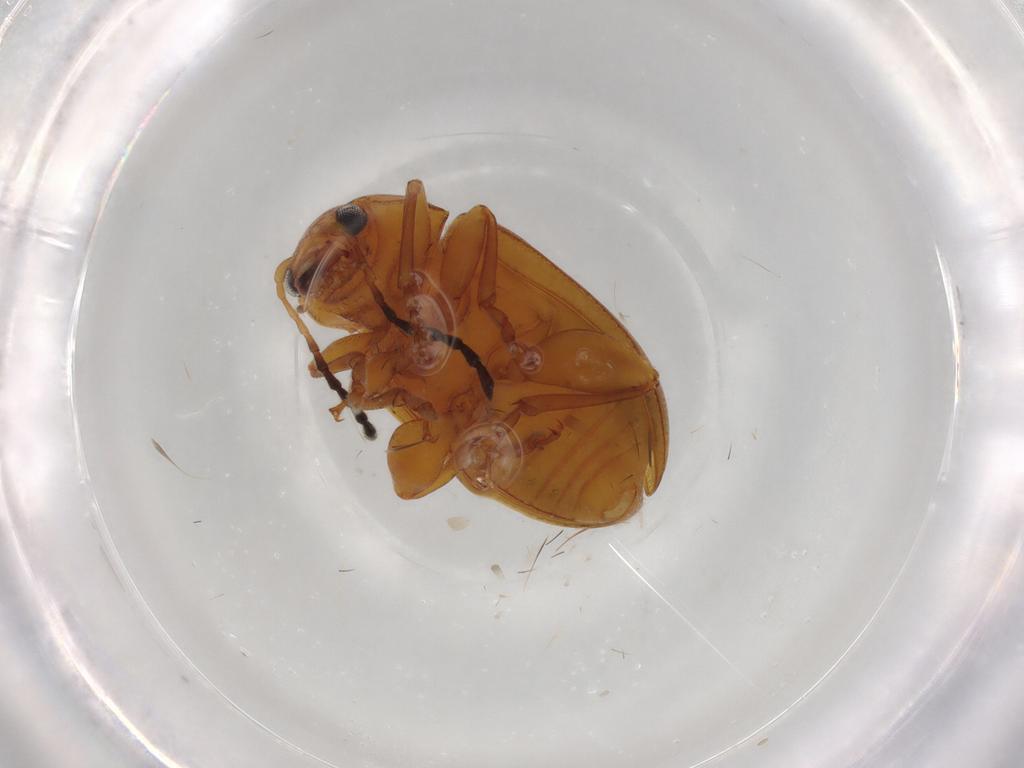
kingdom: Animalia
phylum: Arthropoda
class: Insecta
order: Coleoptera
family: Chrysomelidae
